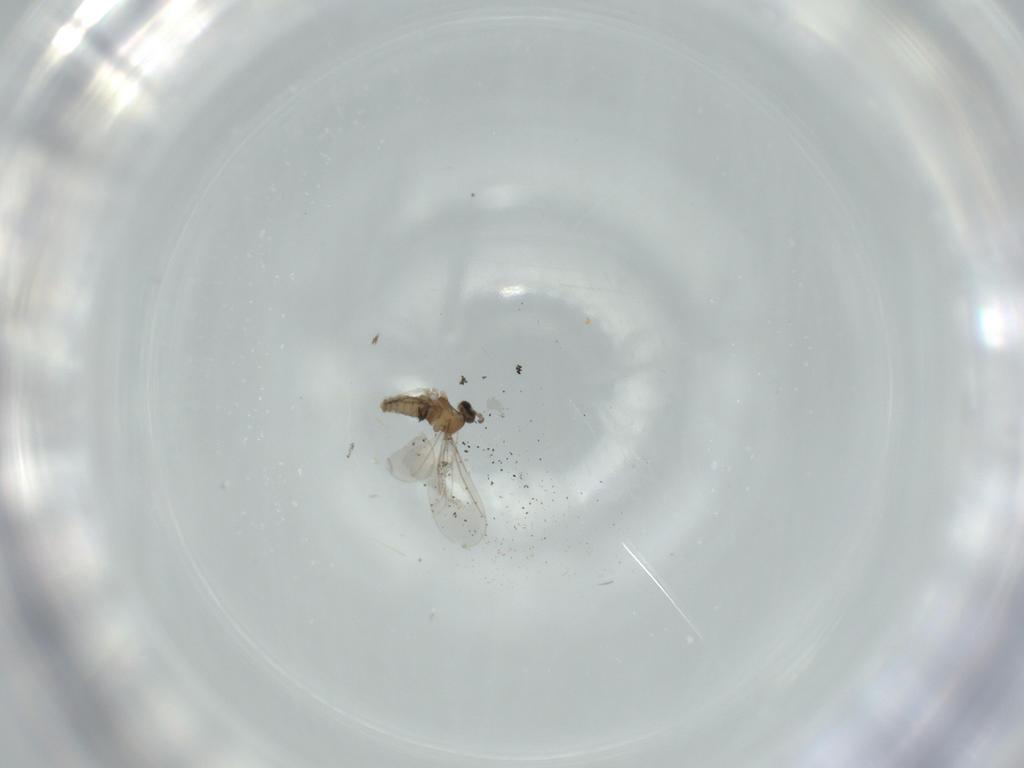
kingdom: Animalia
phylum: Arthropoda
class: Insecta
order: Diptera
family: Cecidomyiidae
